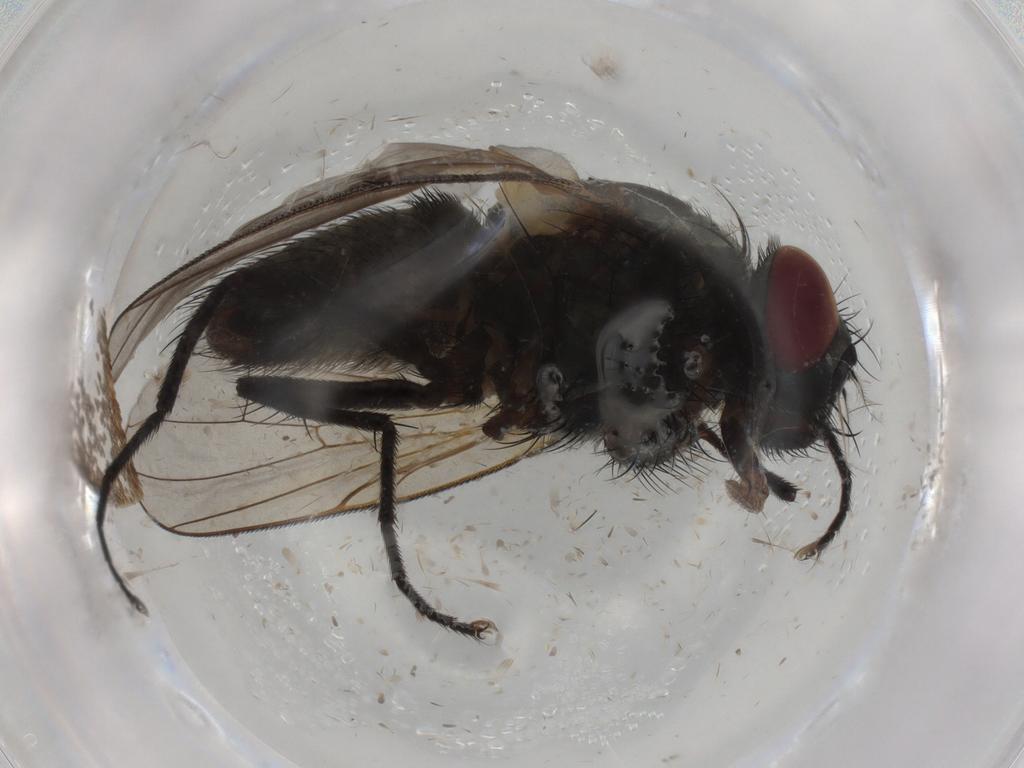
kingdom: Animalia
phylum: Arthropoda
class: Insecta
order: Diptera
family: Muscidae
